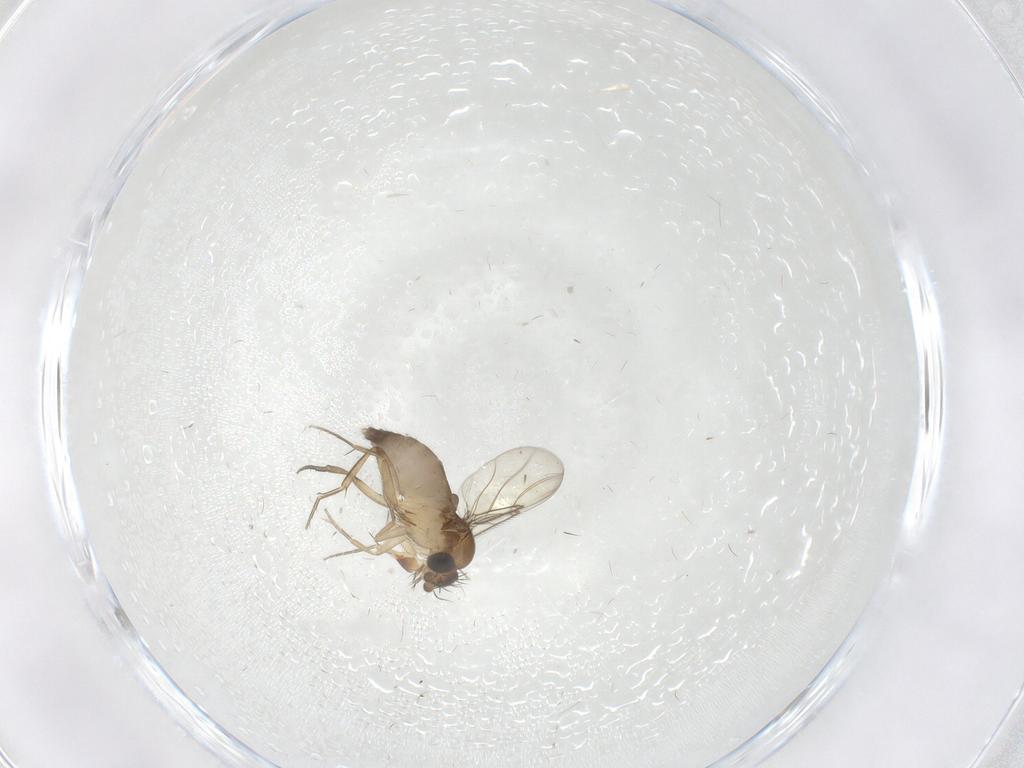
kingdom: Animalia
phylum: Arthropoda
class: Insecta
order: Diptera
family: Phoridae
